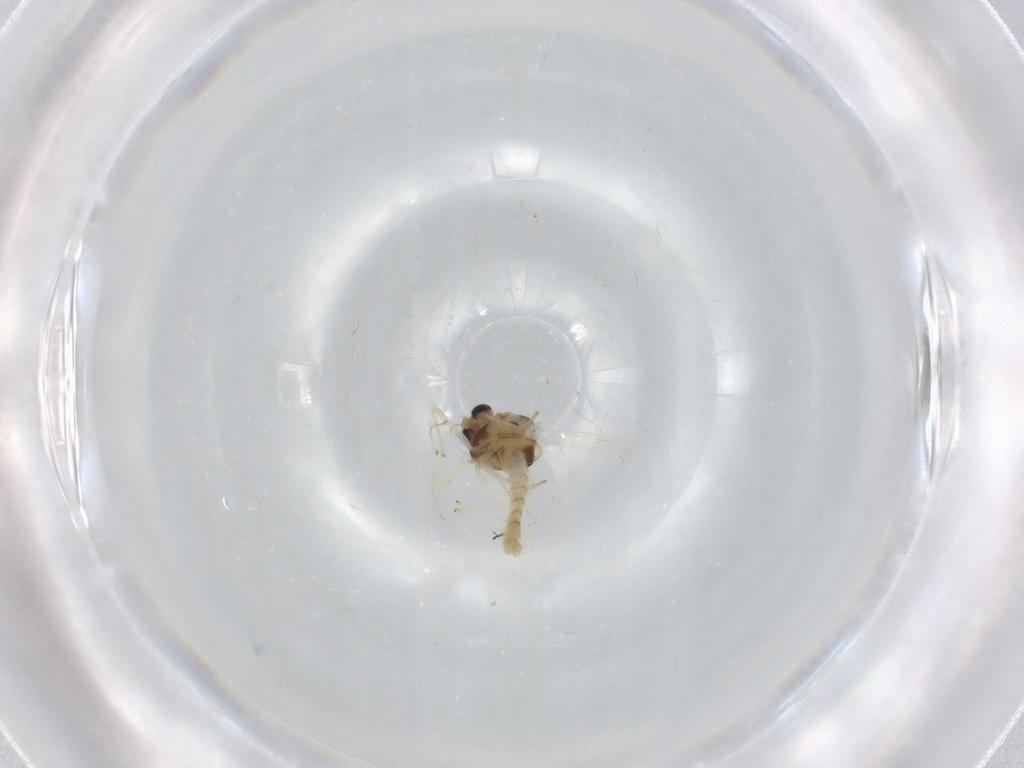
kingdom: Animalia
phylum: Arthropoda
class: Insecta
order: Diptera
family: Chironomidae
